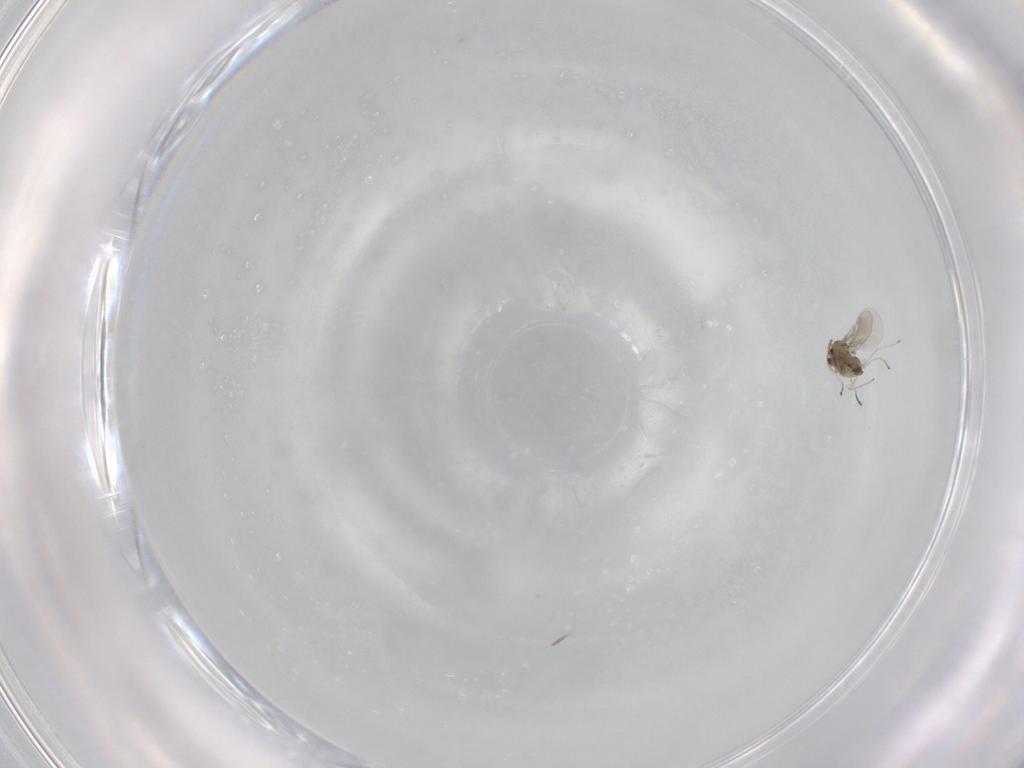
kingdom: Animalia
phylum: Arthropoda
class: Insecta
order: Diptera
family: Cecidomyiidae
